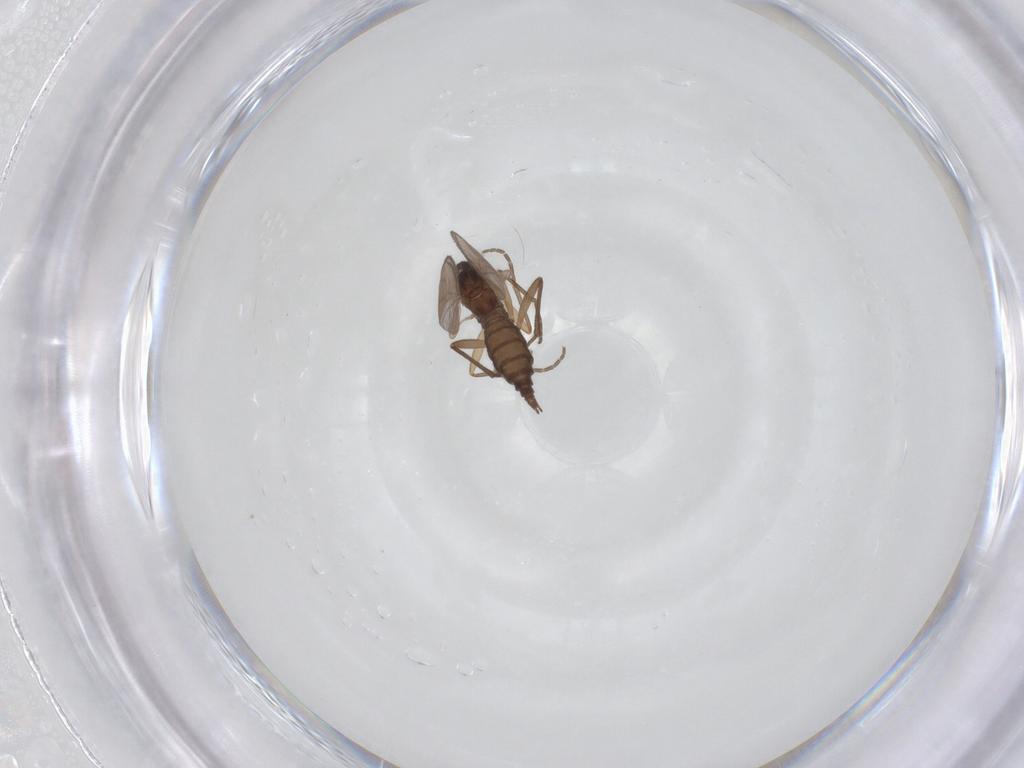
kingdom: Animalia
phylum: Arthropoda
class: Insecta
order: Diptera
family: Sciaridae
